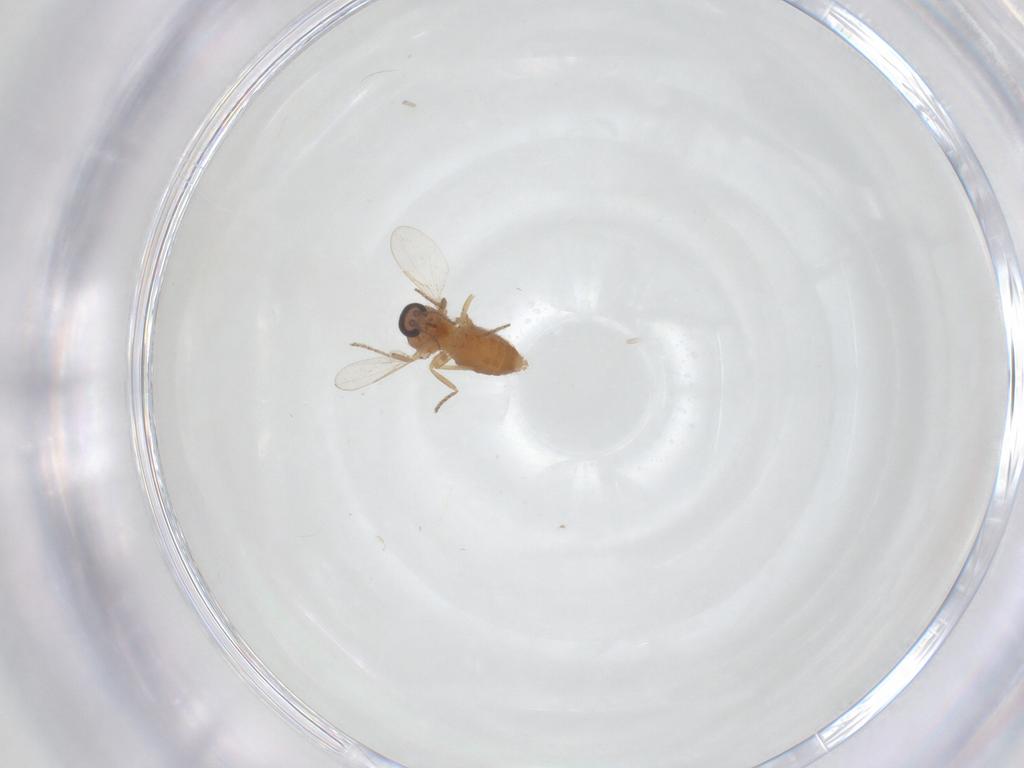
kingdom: Animalia
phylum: Arthropoda
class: Insecta
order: Diptera
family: Ceratopogonidae
